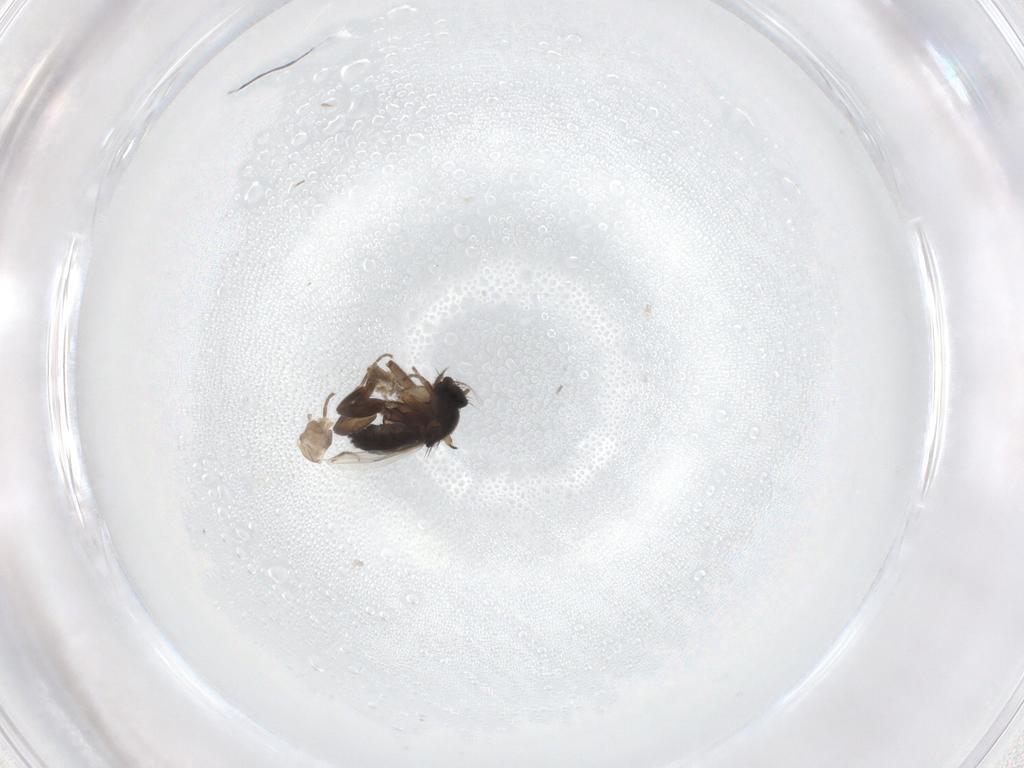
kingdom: Animalia
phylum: Arthropoda
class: Insecta
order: Diptera
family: Phoridae
